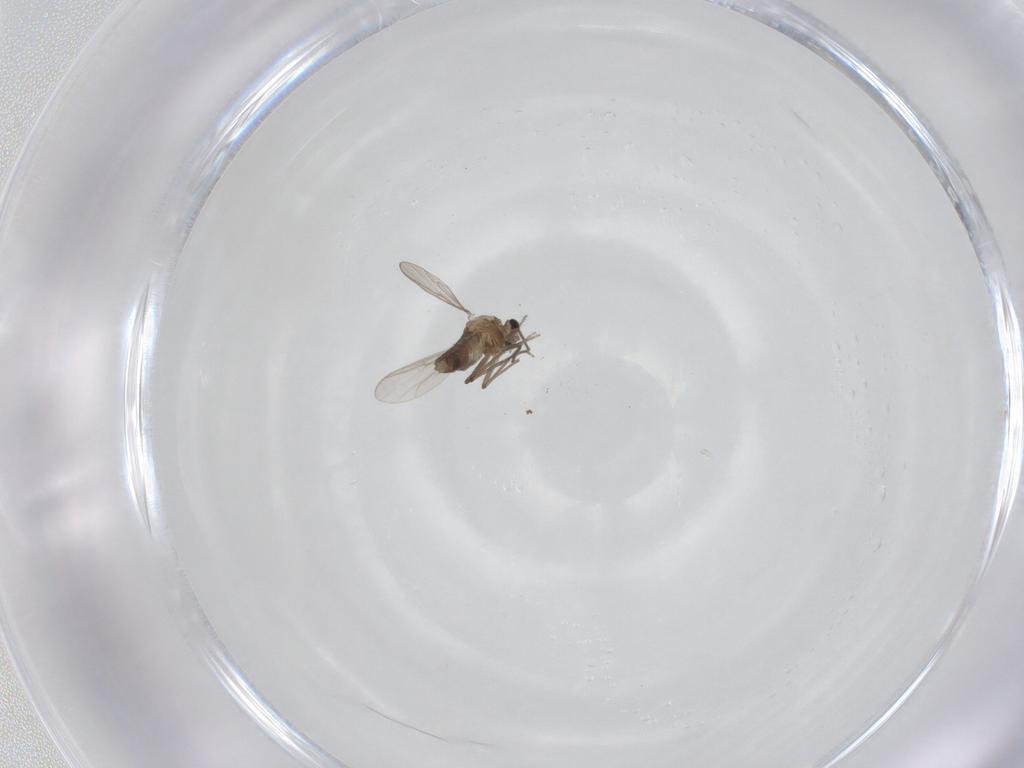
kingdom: Animalia
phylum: Arthropoda
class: Insecta
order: Diptera
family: Chironomidae
